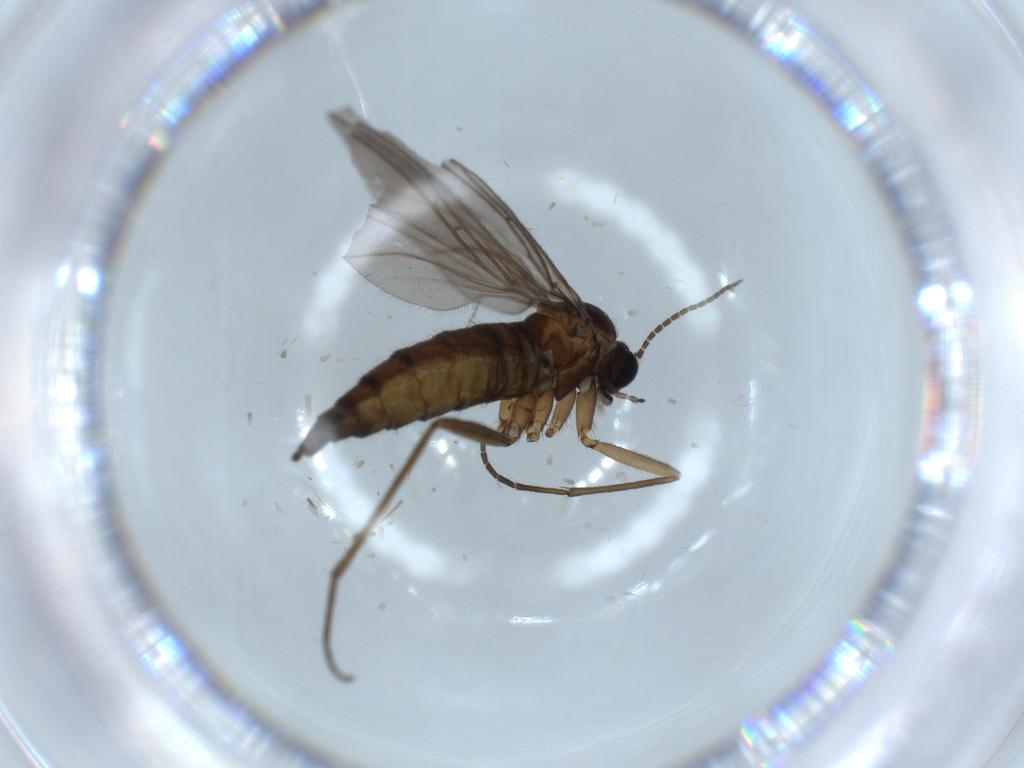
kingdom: Animalia
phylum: Arthropoda
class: Insecta
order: Diptera
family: Sciaridae
